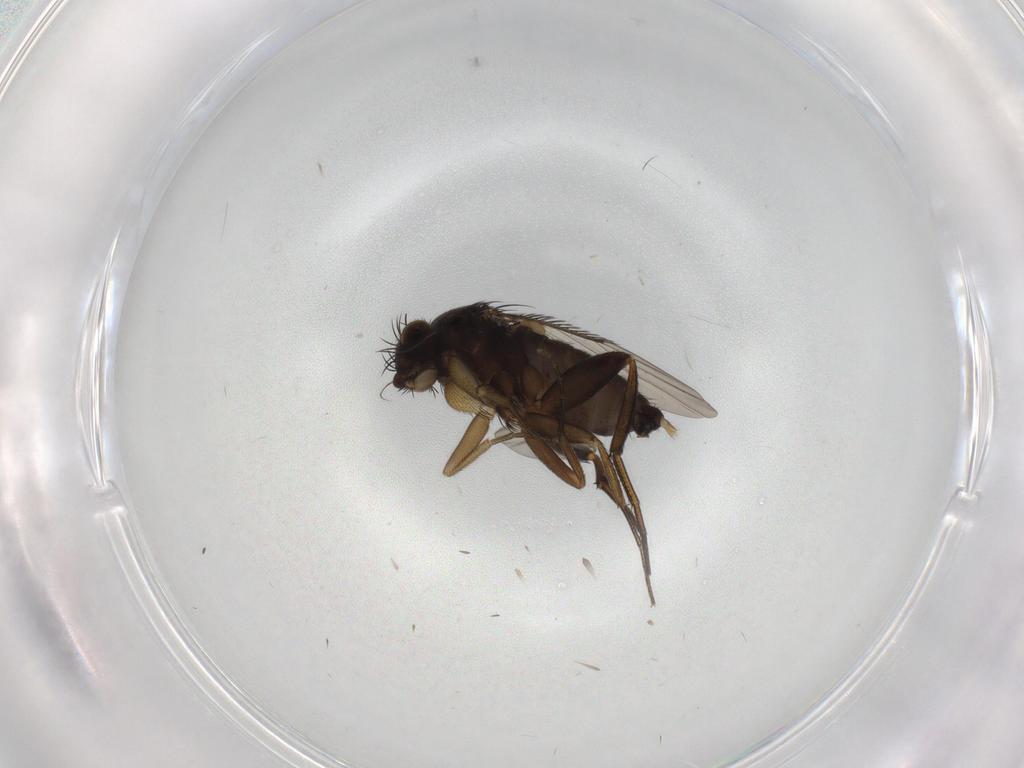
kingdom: Animalia
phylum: Arthropoda
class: Insecta
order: Diptera
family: Phoridae
